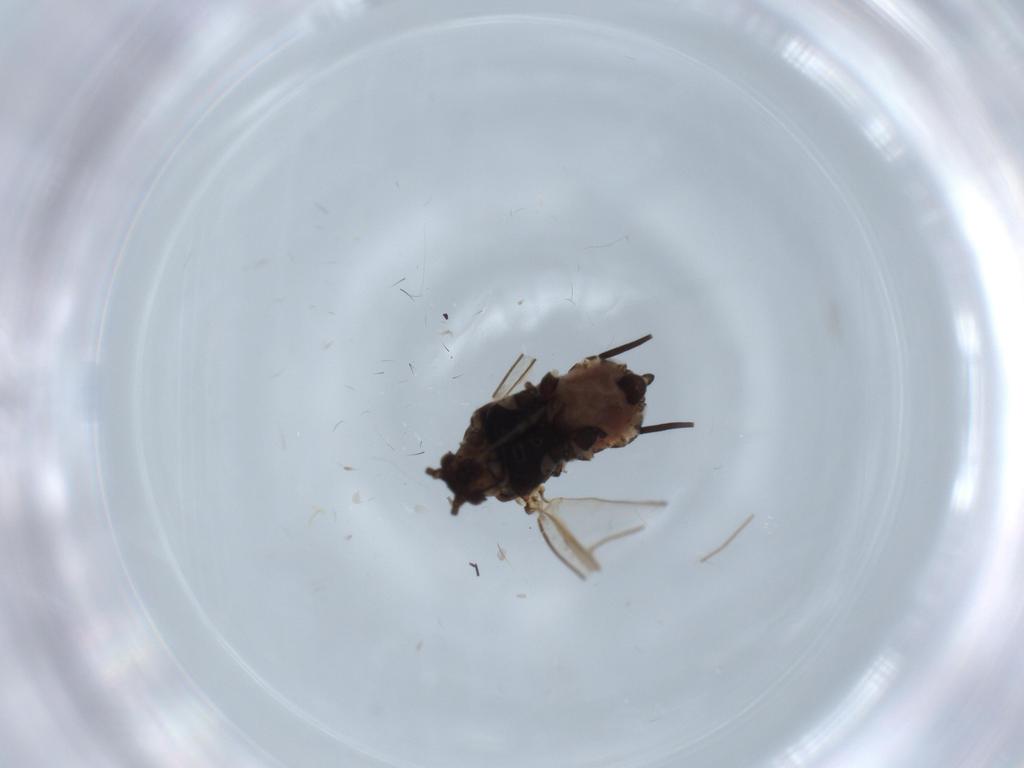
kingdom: Animalia
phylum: Arthropoda
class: Insecta
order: Hemiptera
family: Aphididae
